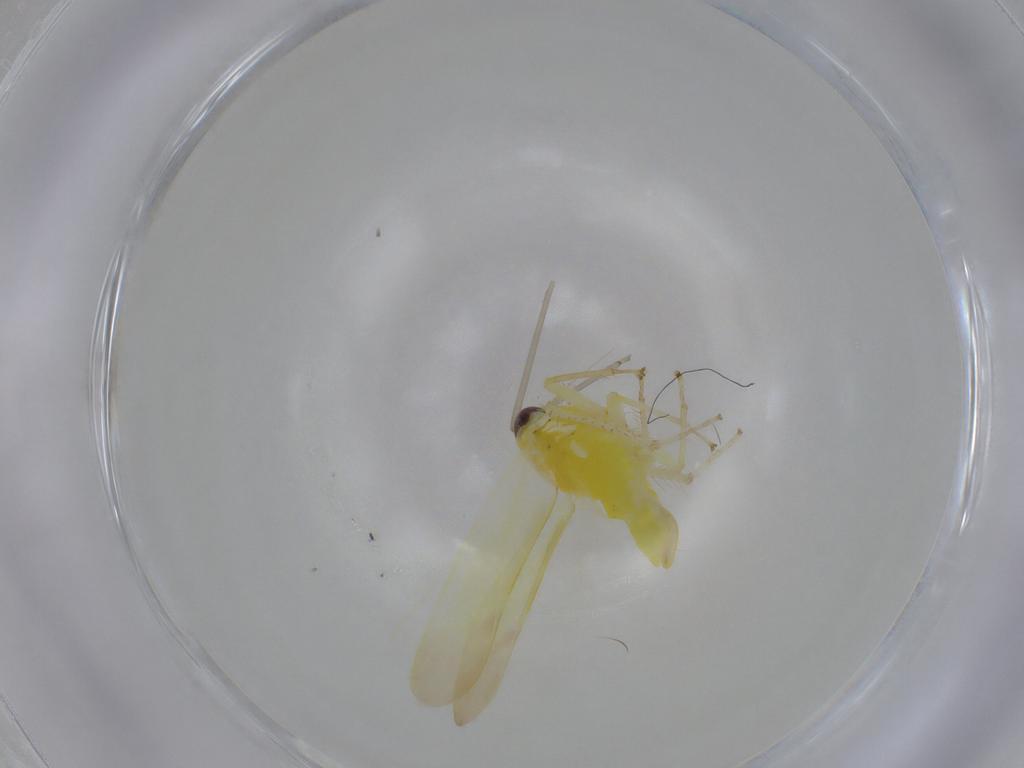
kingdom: Animalia
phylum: Arthropoda
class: Insecta
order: Hemiptera
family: Cicadellidae
